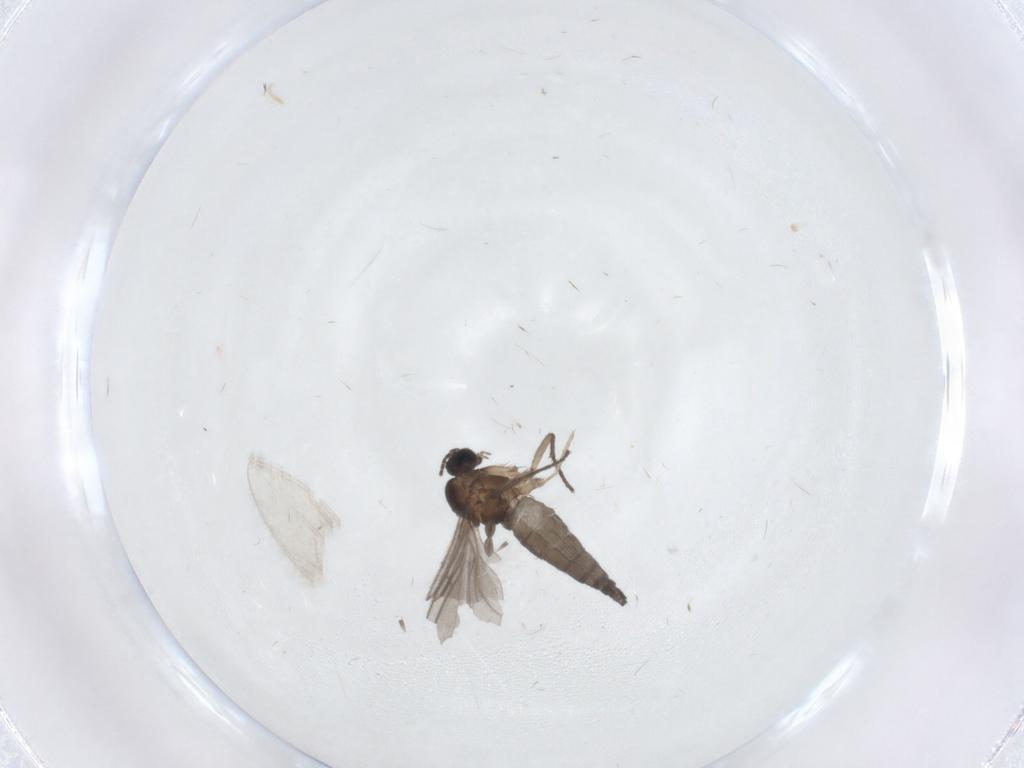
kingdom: Animalia
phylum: Arthropoda
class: Insecta
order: Diptera
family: Sciaridae
